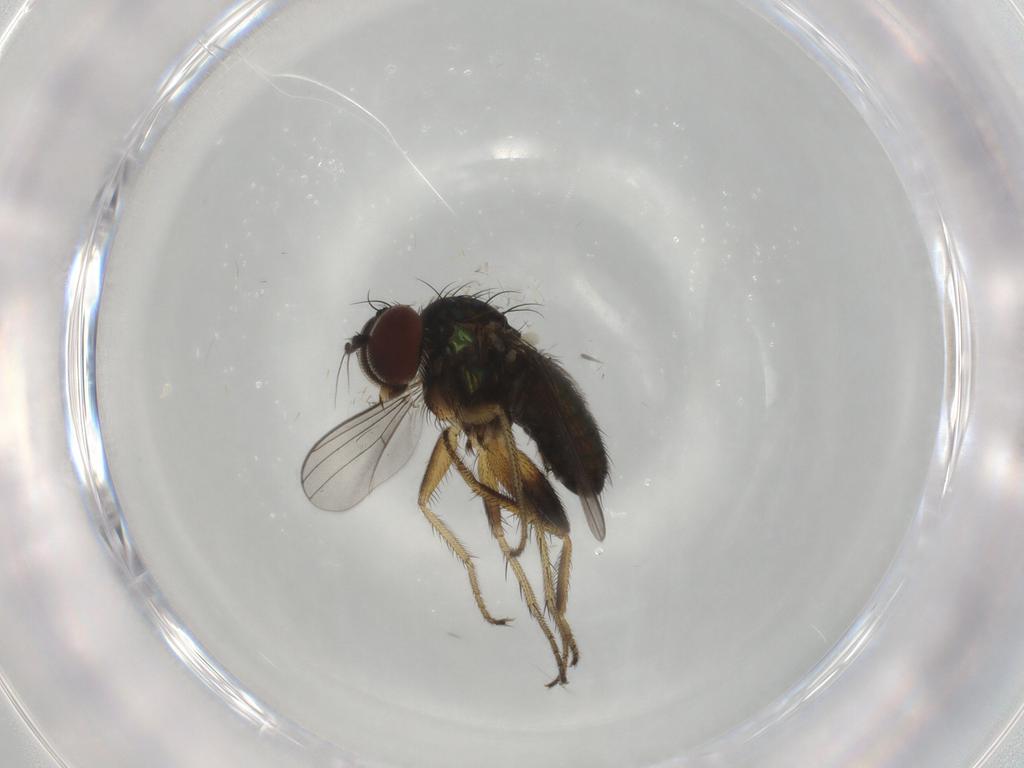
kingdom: Animalia
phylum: Arthropoda
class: Insecta
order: Diptera
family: Dolichopodidae
